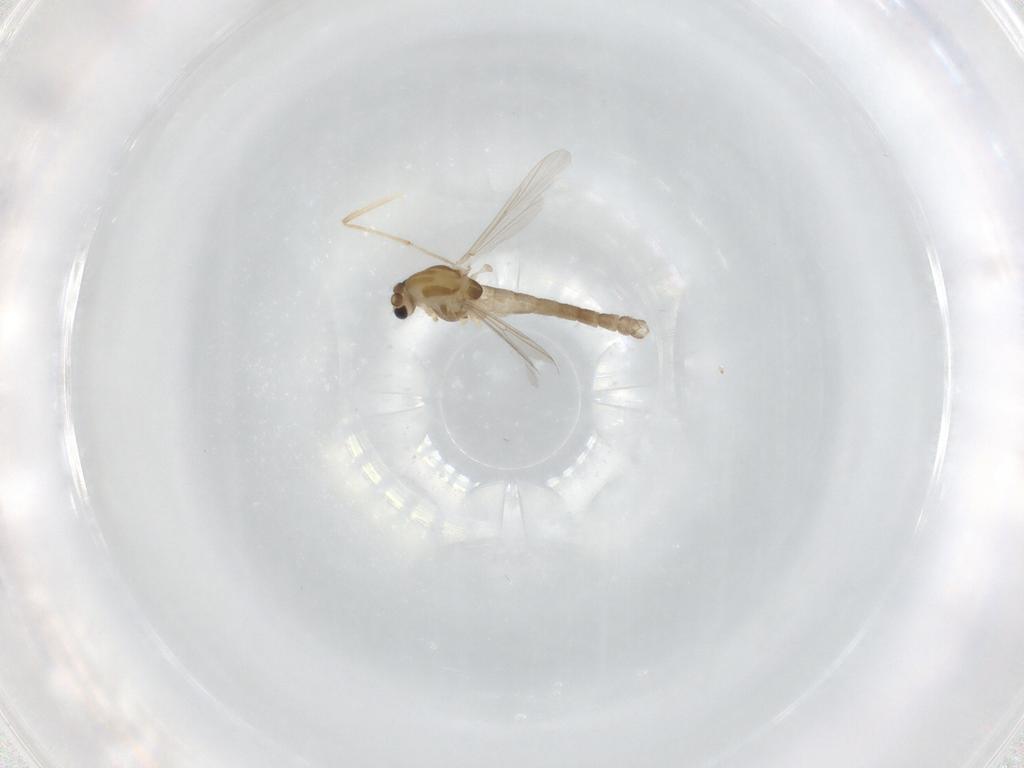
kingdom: Animalia
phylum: Arthropoda
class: Insecta
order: Diptera
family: Chironomidae
